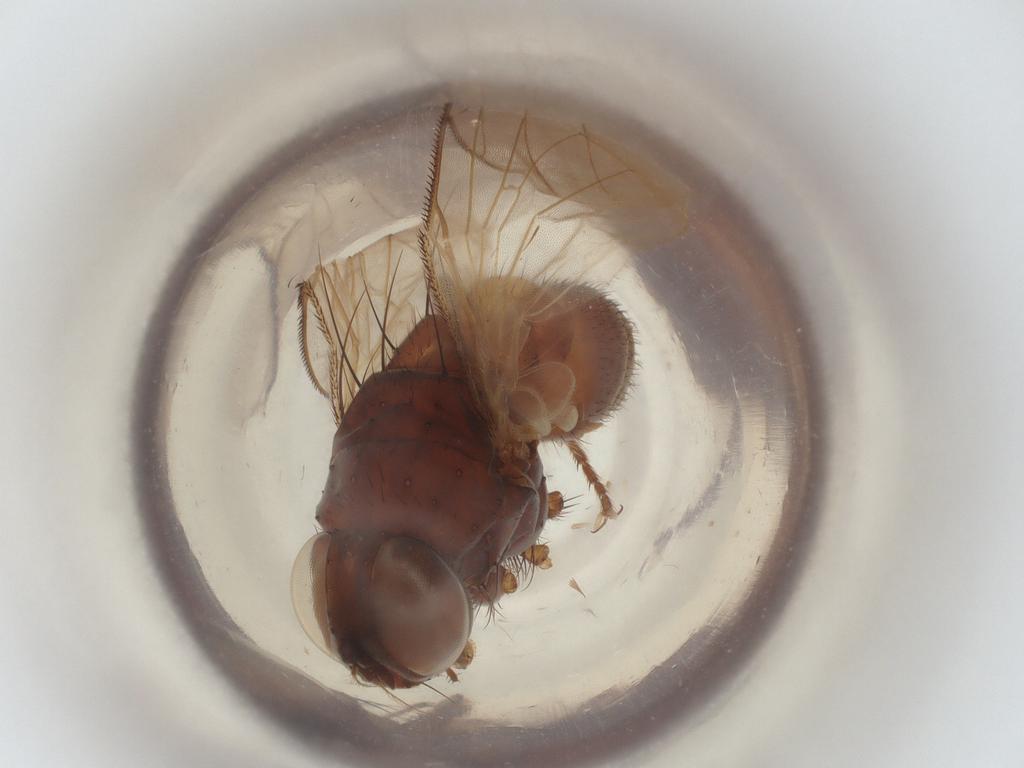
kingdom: Animalia
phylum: Arthropoda
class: Insecta
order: Diptera
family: Muscidae
